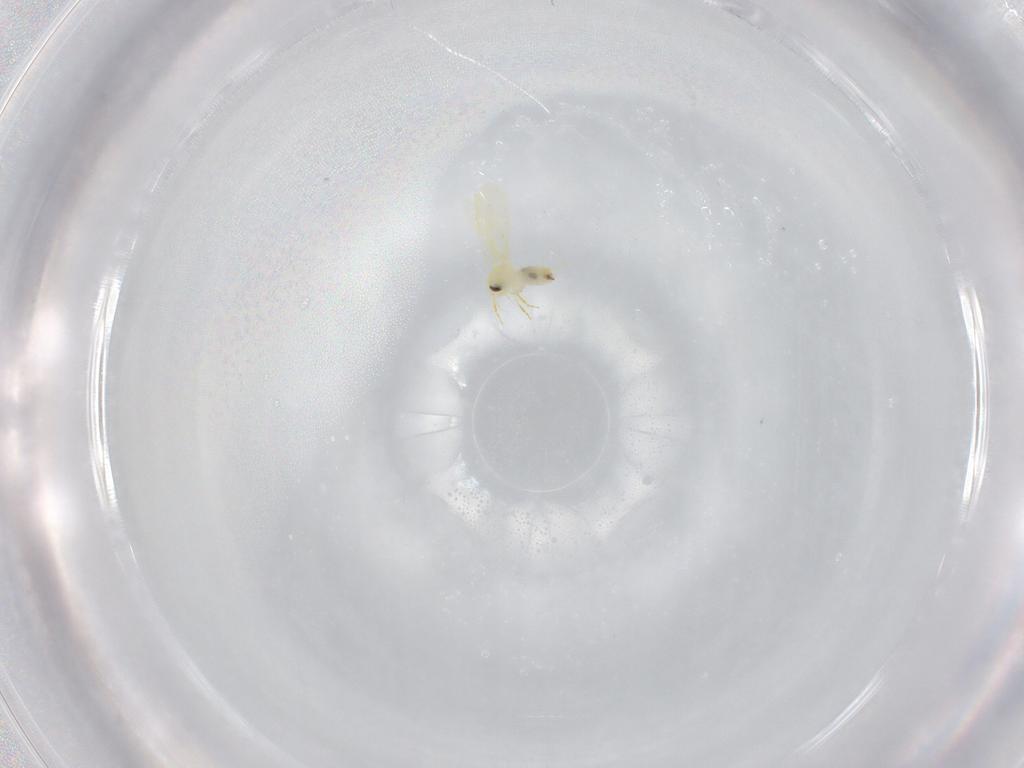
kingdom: Animalia
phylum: Arthropoda
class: Insecta
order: Hemiptera
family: Aleyrodidae
